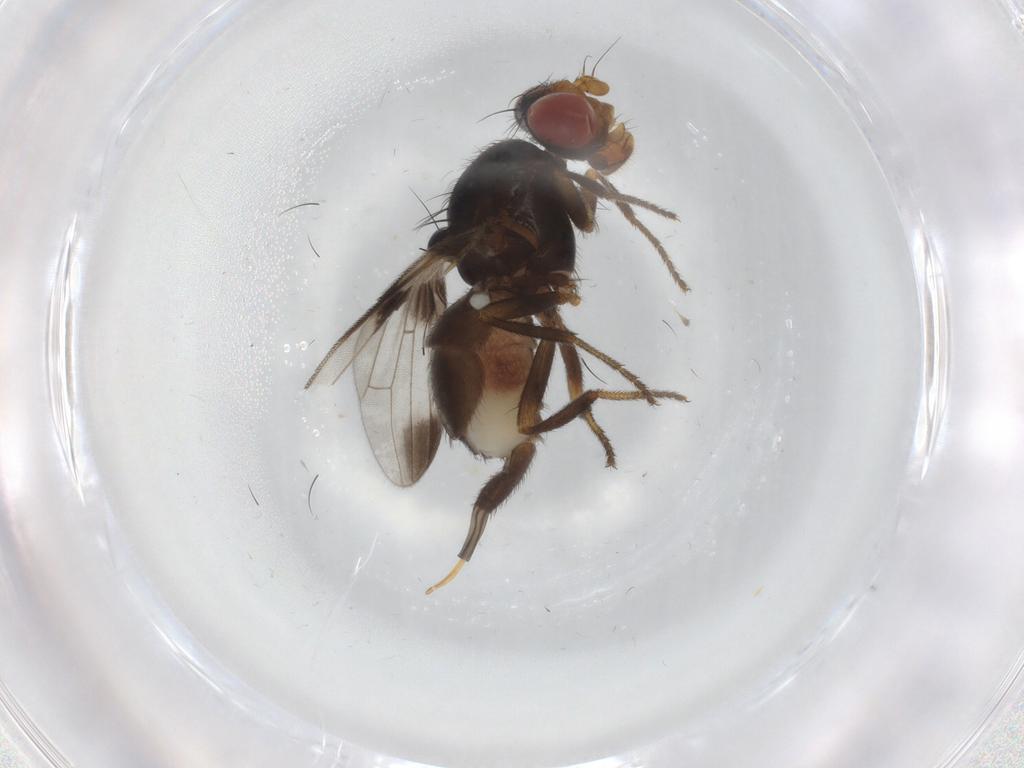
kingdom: Animalia
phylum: Arthropoda
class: Insecta
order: Diptera
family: Ulidiidae
